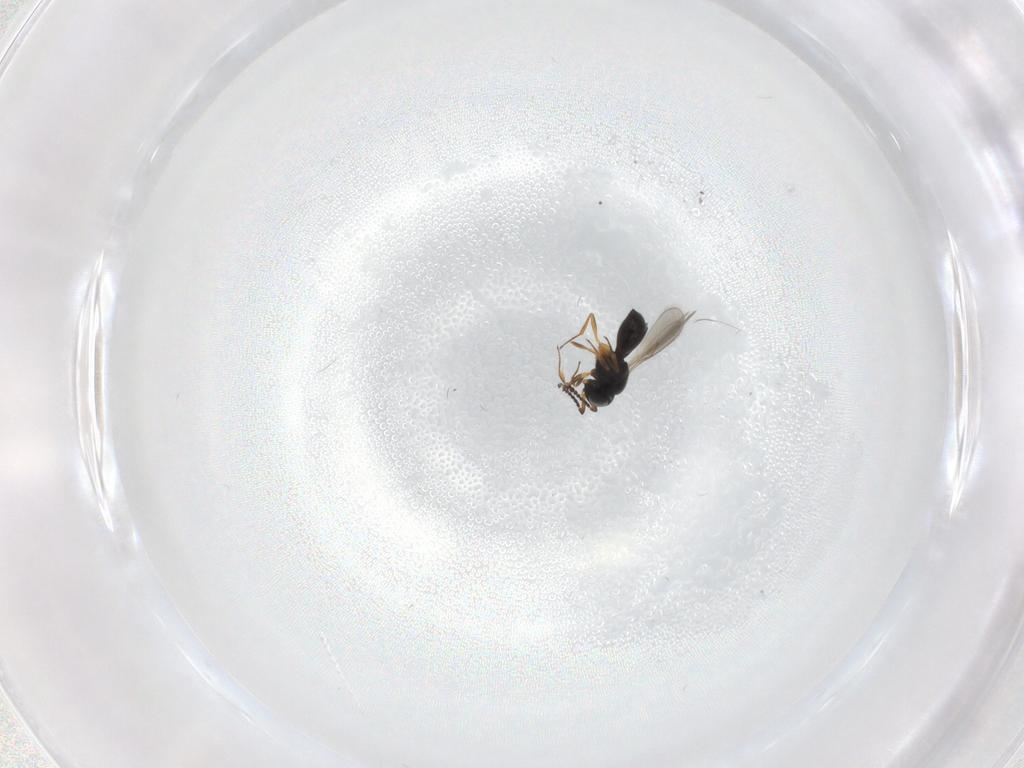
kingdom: Animalia
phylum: Arthropoda
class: Insecta
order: Hymenoptera
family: Scelionidae
